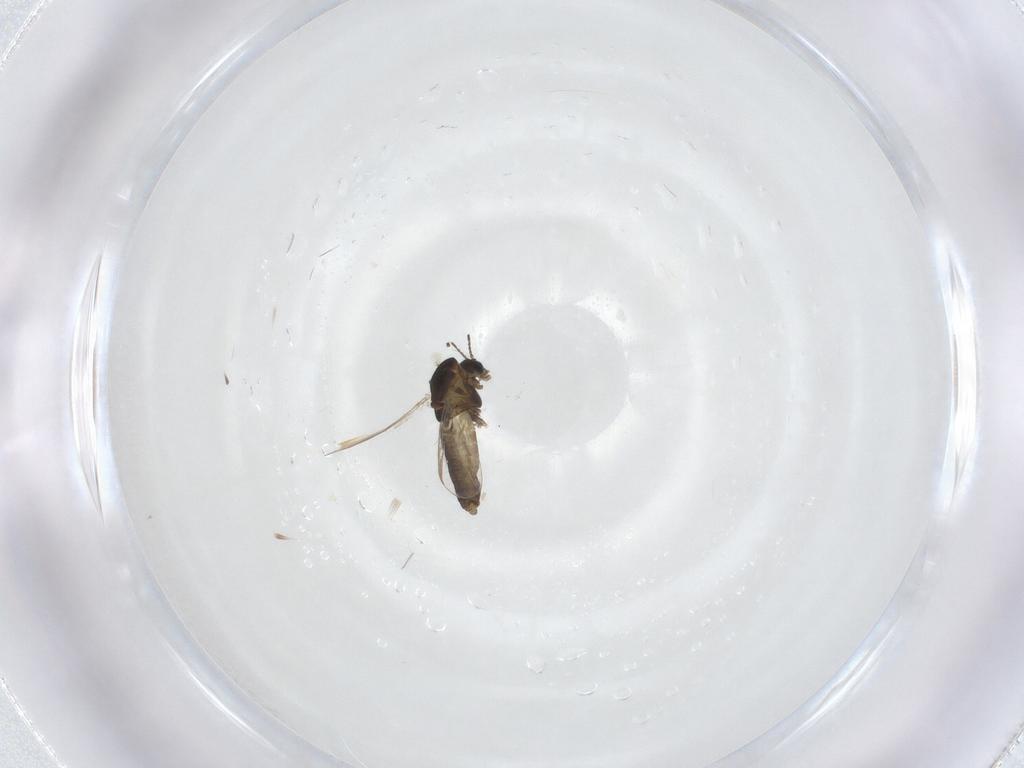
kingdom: Animalia
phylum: Arthropoda
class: Insecta
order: Diptera
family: Chironomidae
